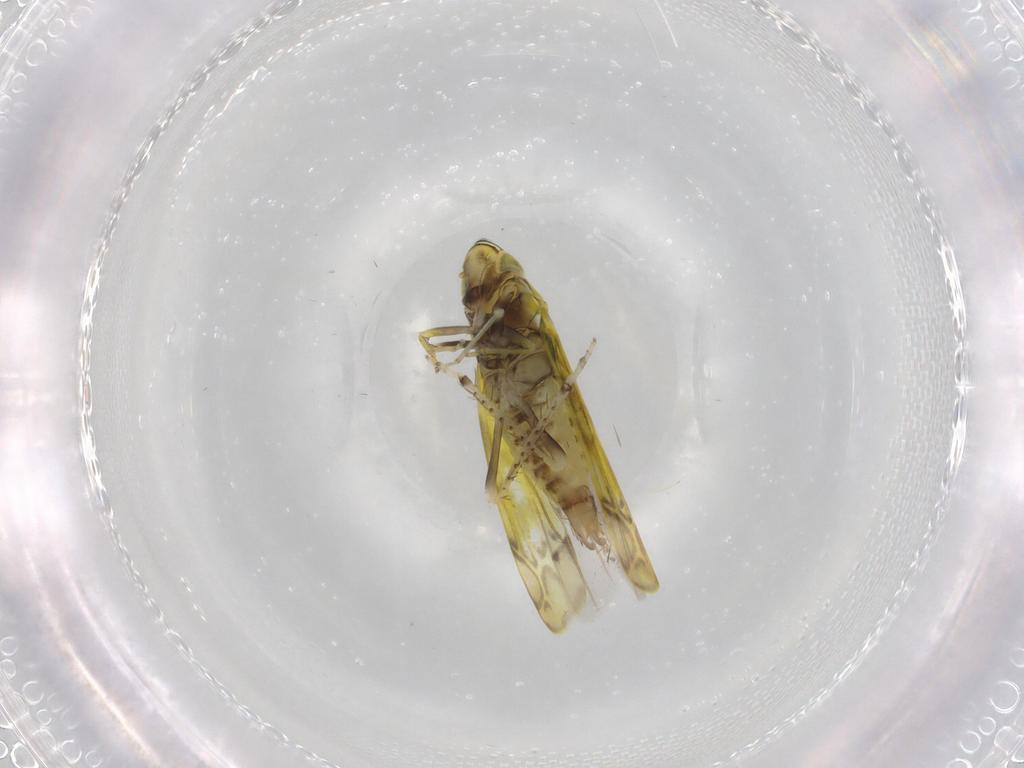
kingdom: Animalia
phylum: Arthropoda
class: Insecta
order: Hemiptera
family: Cicadellidae
